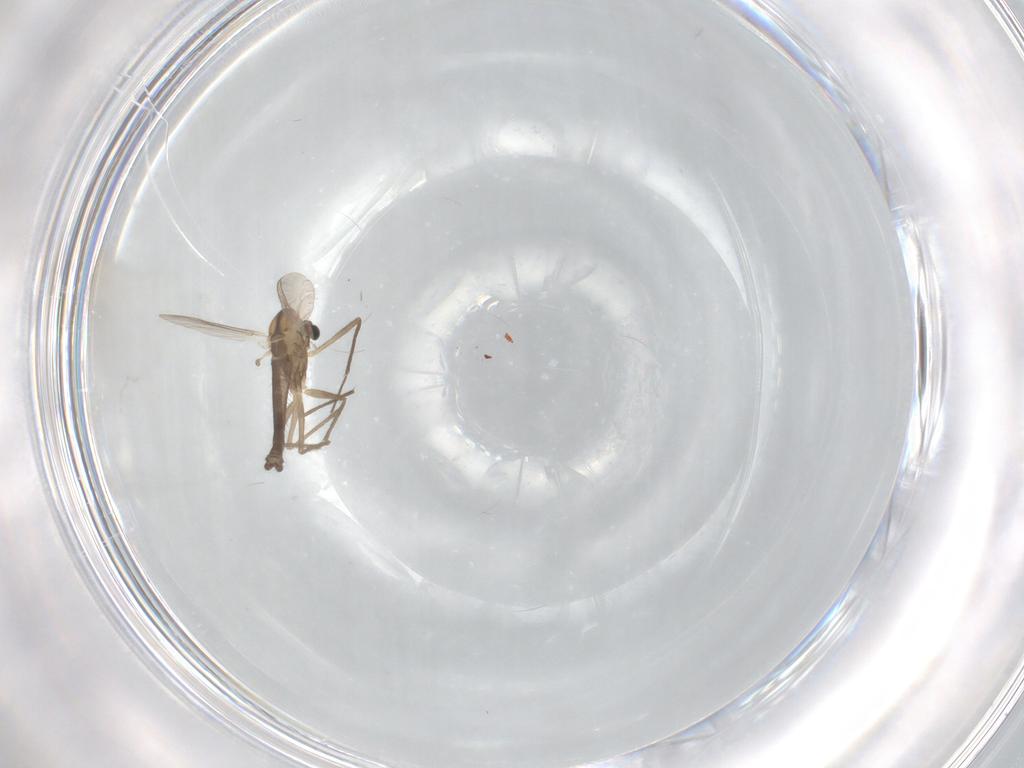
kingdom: Animalia
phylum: Arthropoda
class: Insecta
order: Diptera
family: Chironomidae
